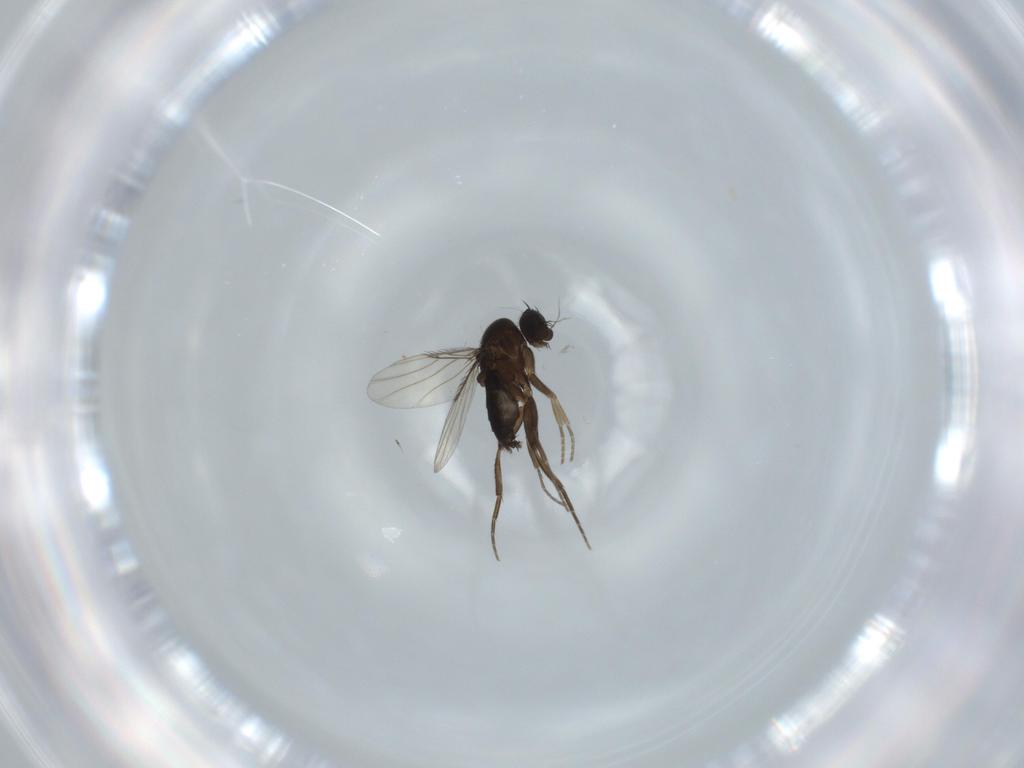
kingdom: Animalia
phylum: Arthropoda
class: Insecta
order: Diptera
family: Phoridae
